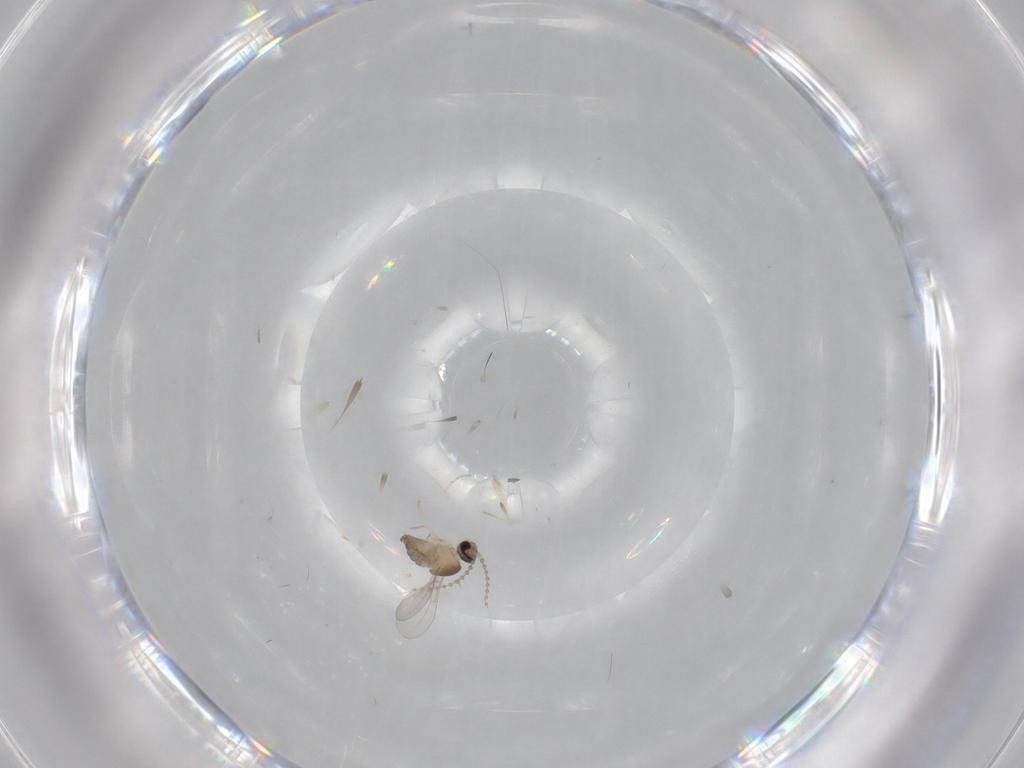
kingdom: Animalia
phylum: Arthropoda
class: Insecta
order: Diptera
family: Cecidomyiidae
